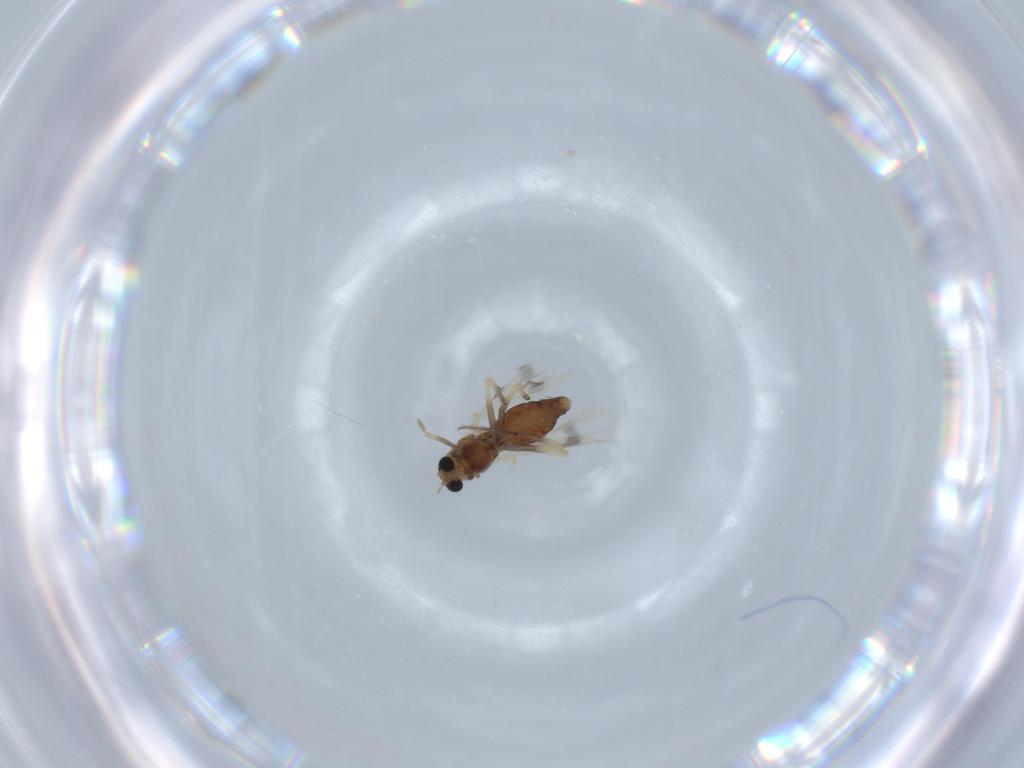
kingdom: Animalia
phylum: Arthropoda
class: Insecta
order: Diptera
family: Chironomidae
